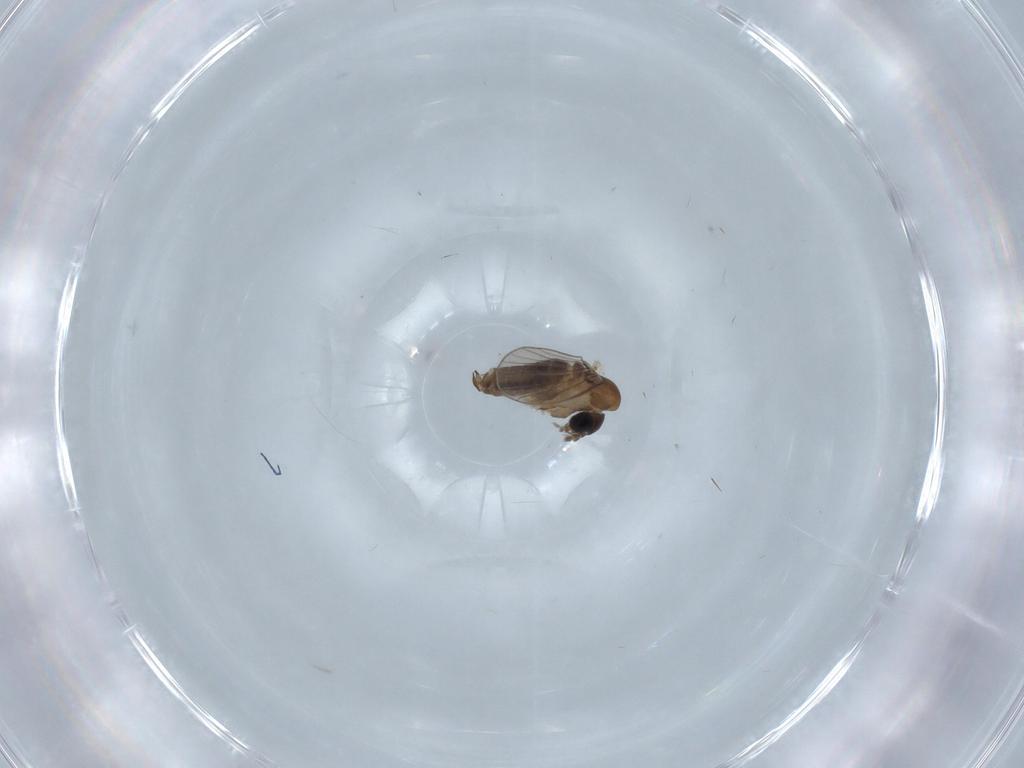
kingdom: Animalia
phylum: Arthropoda
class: Insecta
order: Diptera
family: Psychodidae
